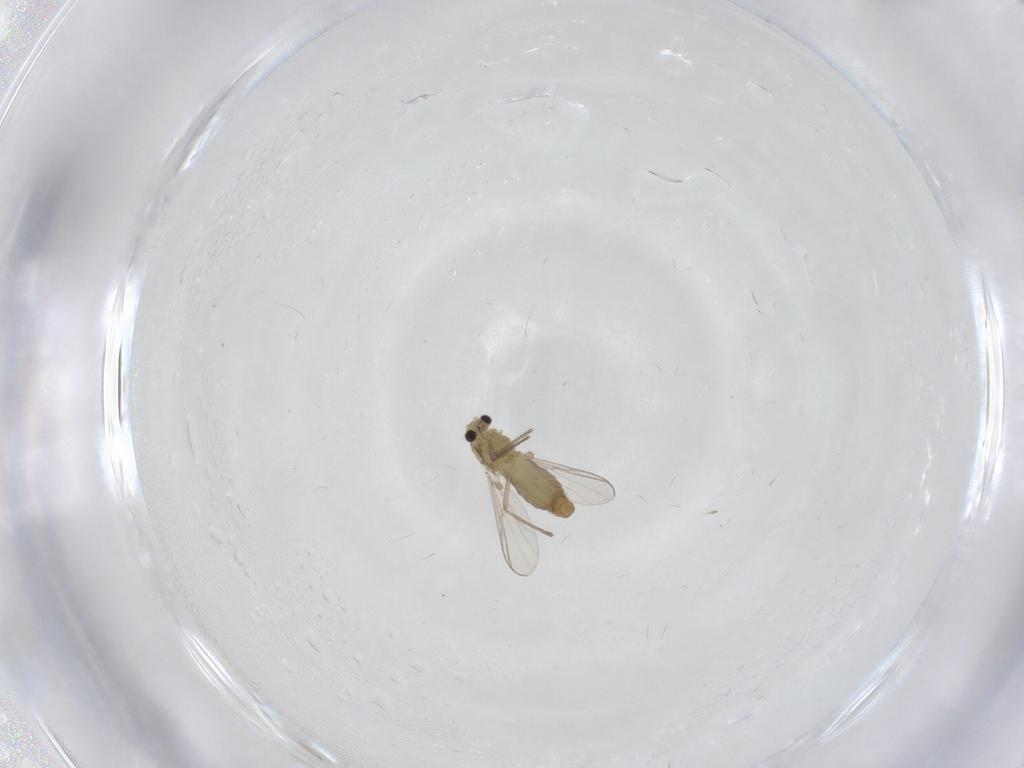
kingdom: Animalia
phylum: Arthropoda
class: Insecta
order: Diptera
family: Chironomidae
